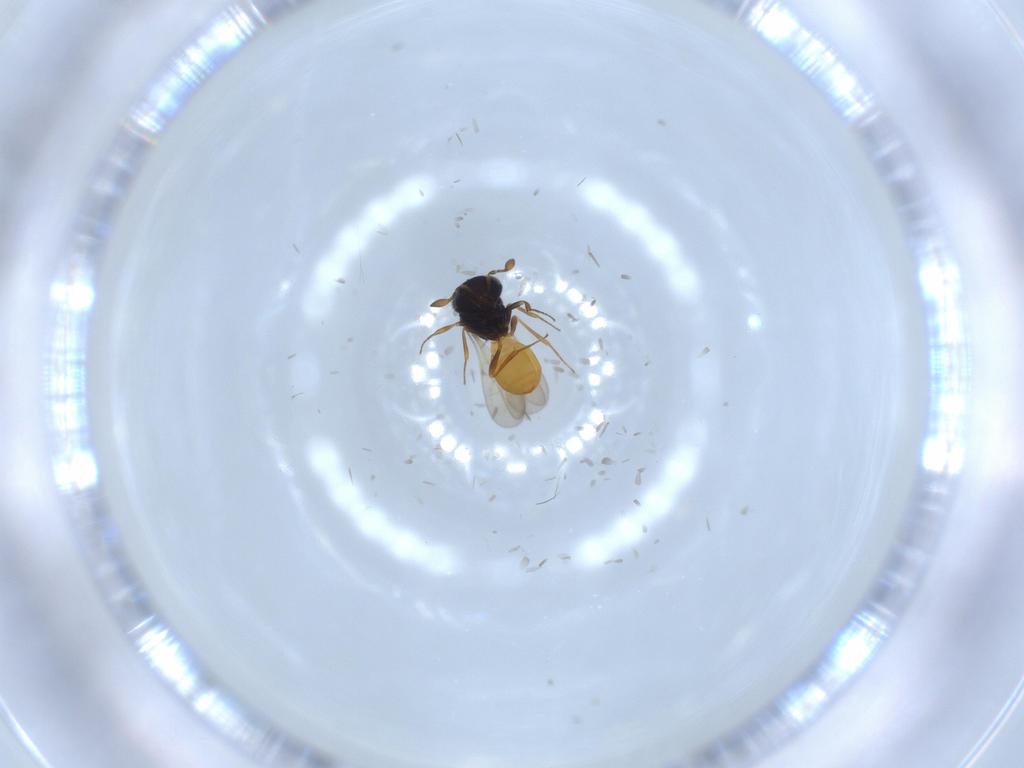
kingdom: Animalia
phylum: Arthropoda
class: Insecta
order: Hymenoptera
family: Scelionidae
